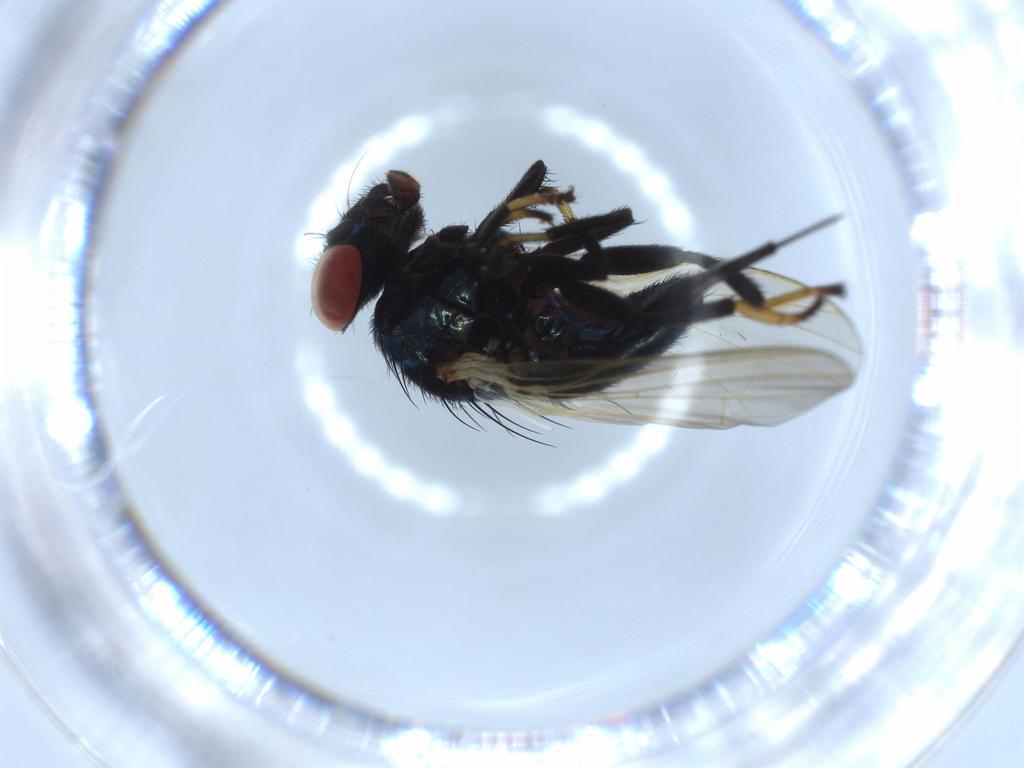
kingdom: Animalia
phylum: Arthropoda
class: Insecta
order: Diptera
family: Lonchaeidae
